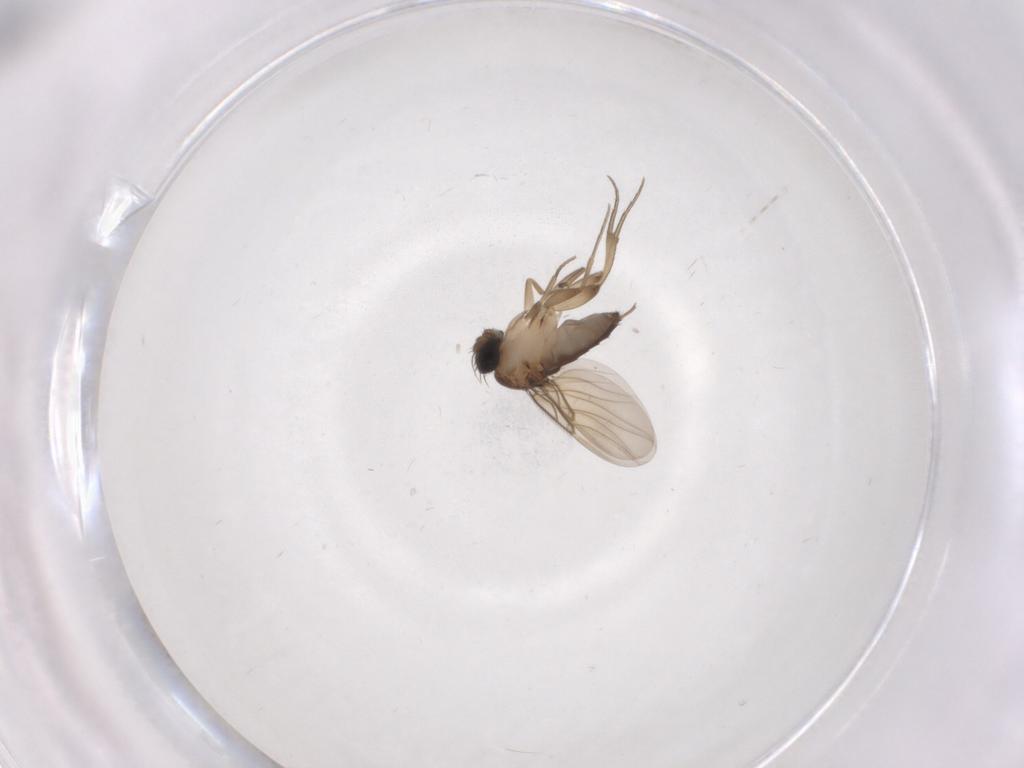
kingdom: Animalia
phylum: Arthropoda
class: Insecta
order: Diptera
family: Phoridae
